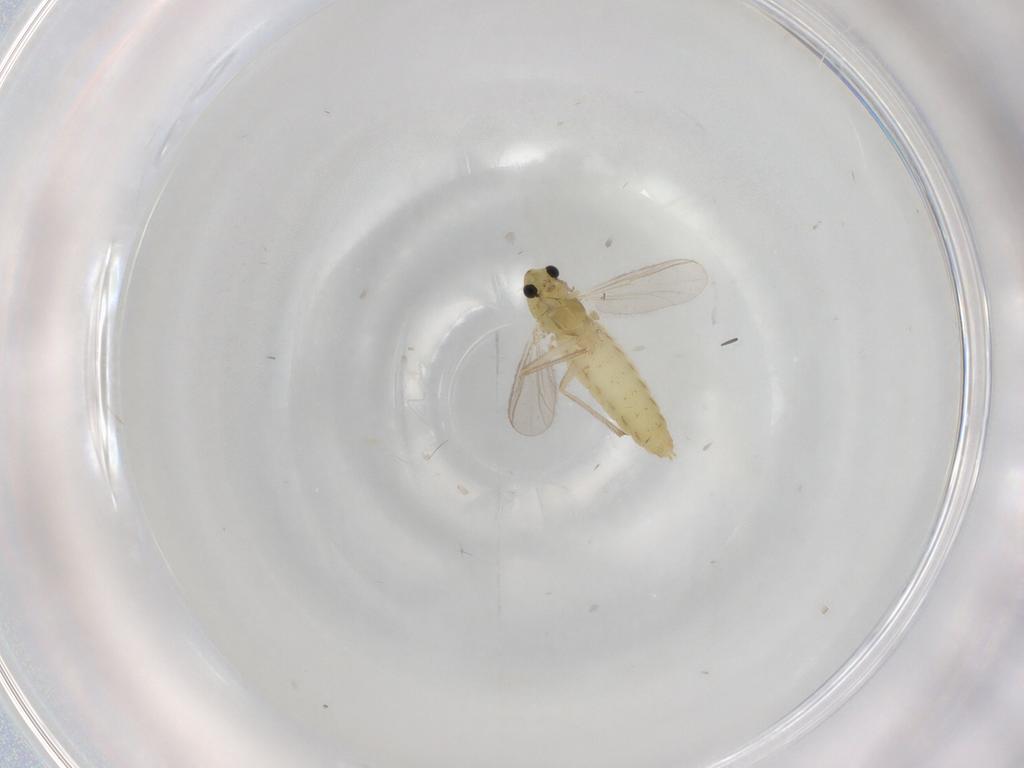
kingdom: Animalia
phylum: Arthropoda
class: Insecta
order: Diptera
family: Chironomidae
